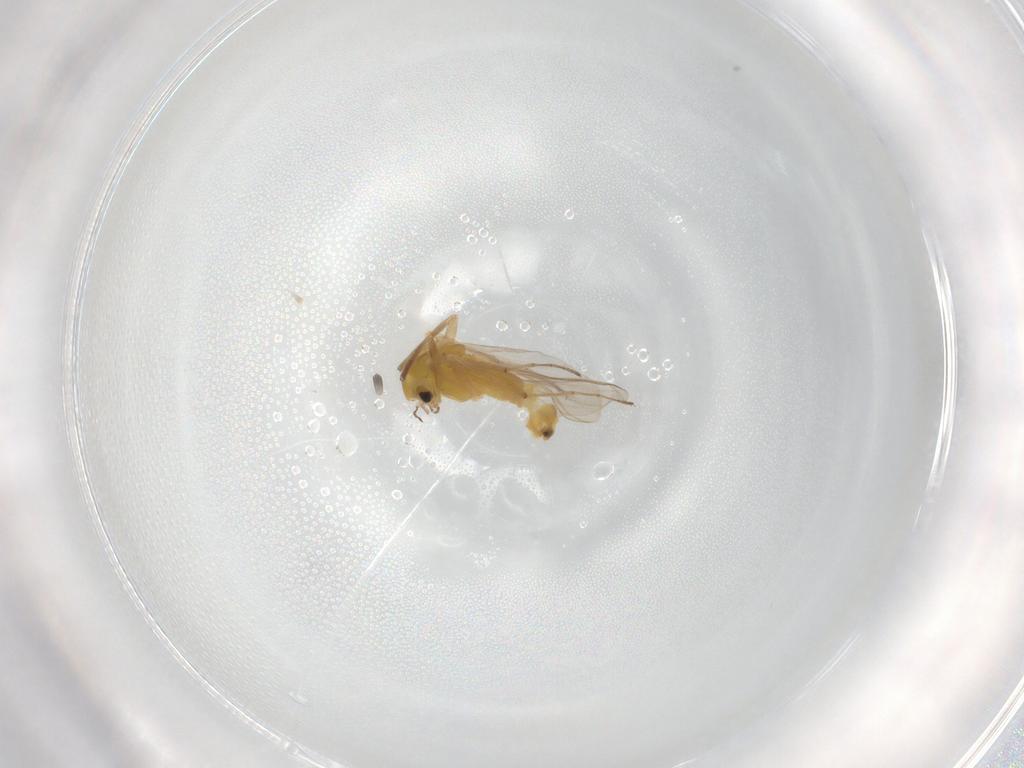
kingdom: Animalia
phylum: Arthropoda
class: Insecta
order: Diptera
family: Chironomidae
